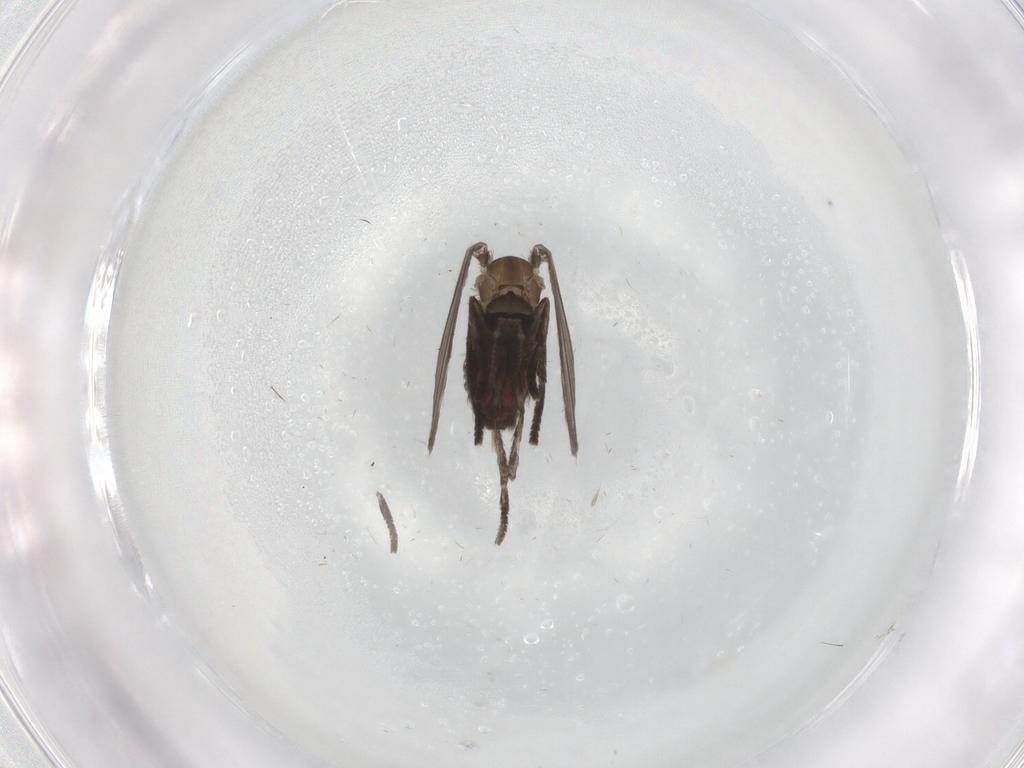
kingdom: Animalia
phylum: Arthropoda
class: Insecta
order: Diptera
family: Psychodidae
